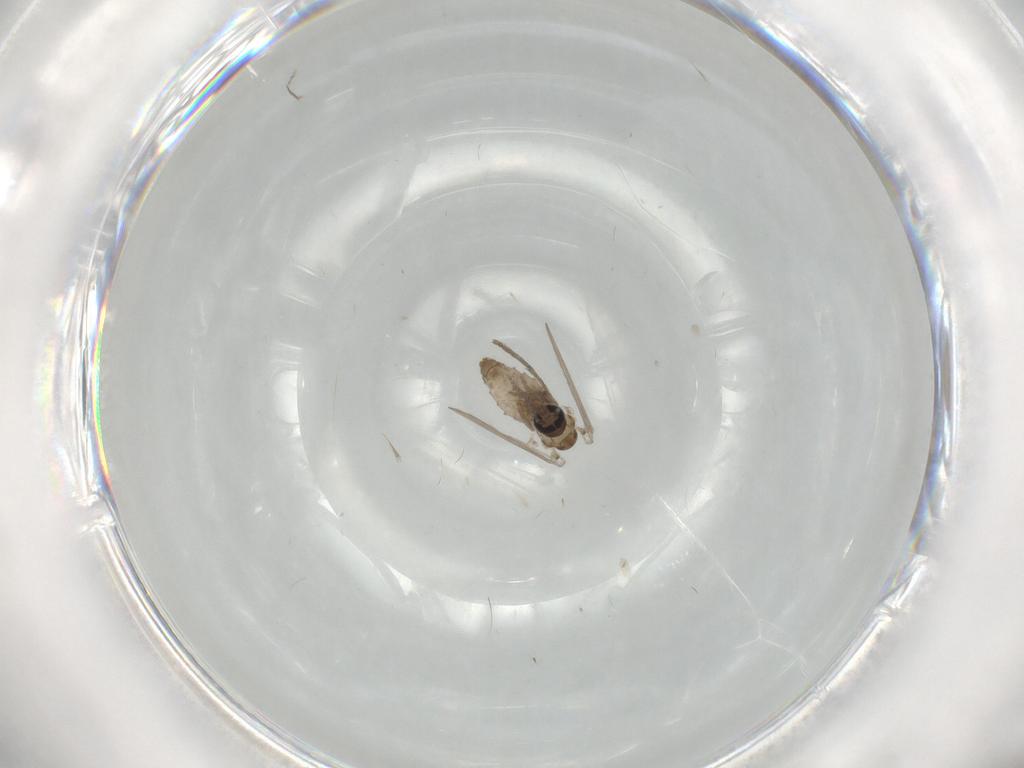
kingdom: Animalia
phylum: Arthropoda
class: Insecta
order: Diptera
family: Psychodidae
